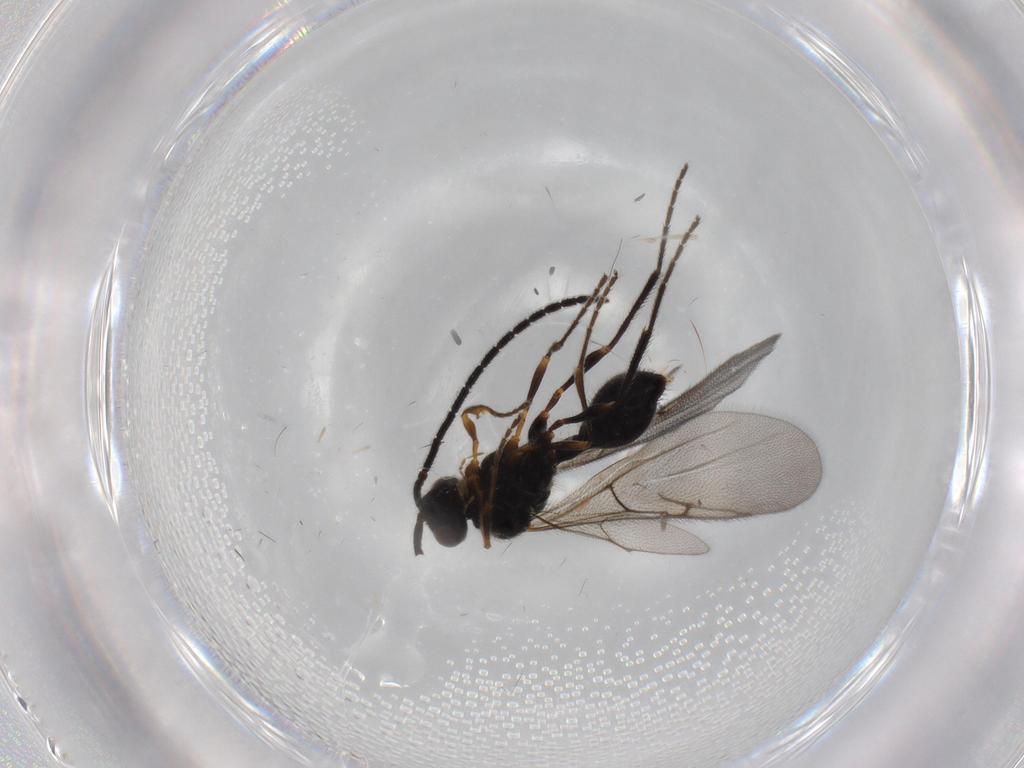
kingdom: Animalia
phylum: Arthropoda
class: Insecta
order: Hymenoptera
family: Diapriidae
